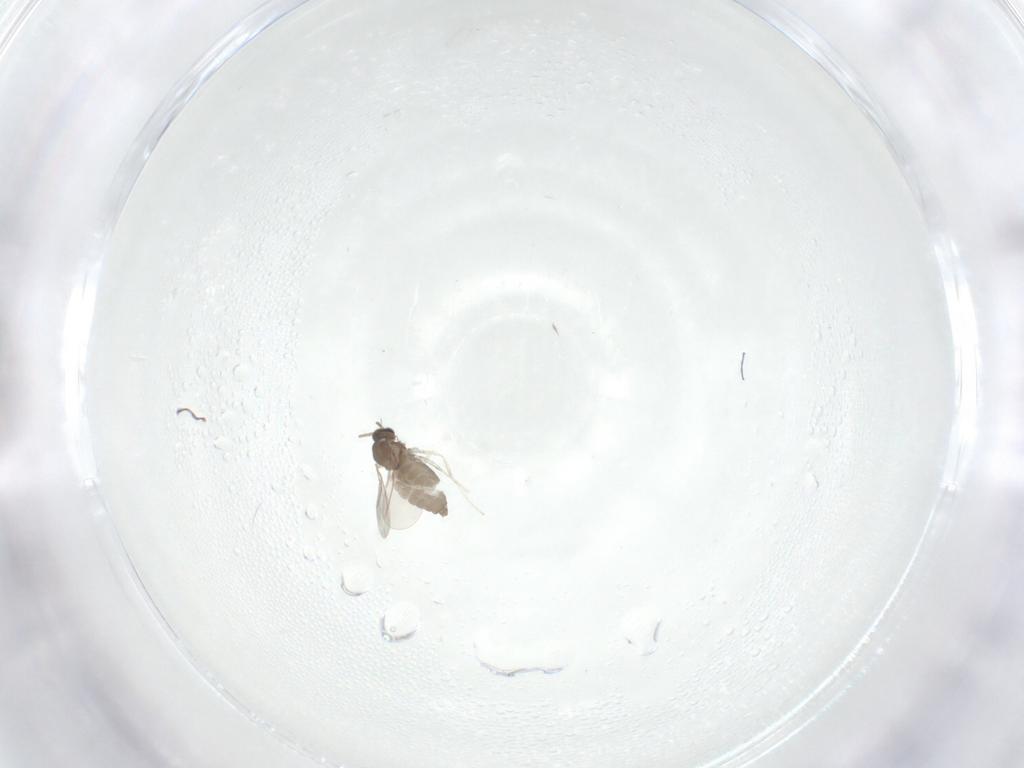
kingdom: Animalia
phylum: Arthropoda
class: Insecta
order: Diptera
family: Cecidomyiidae
